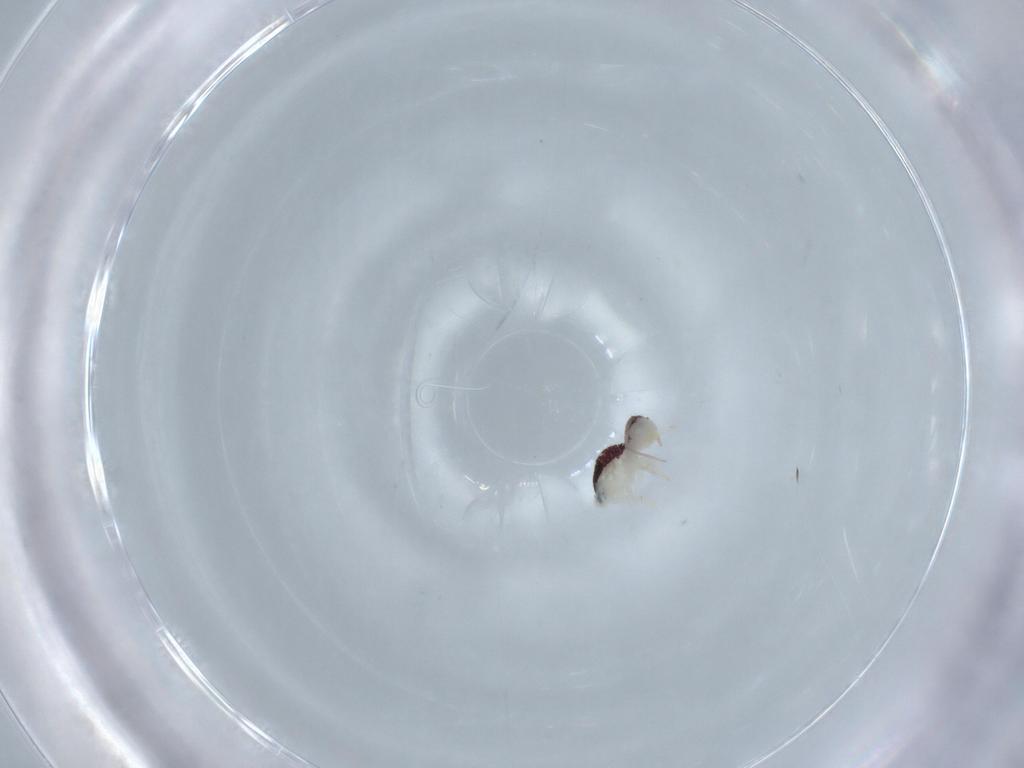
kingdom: Animalia
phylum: Arthropoda
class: Collembola
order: Symphypleona
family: Bourletiellidae
